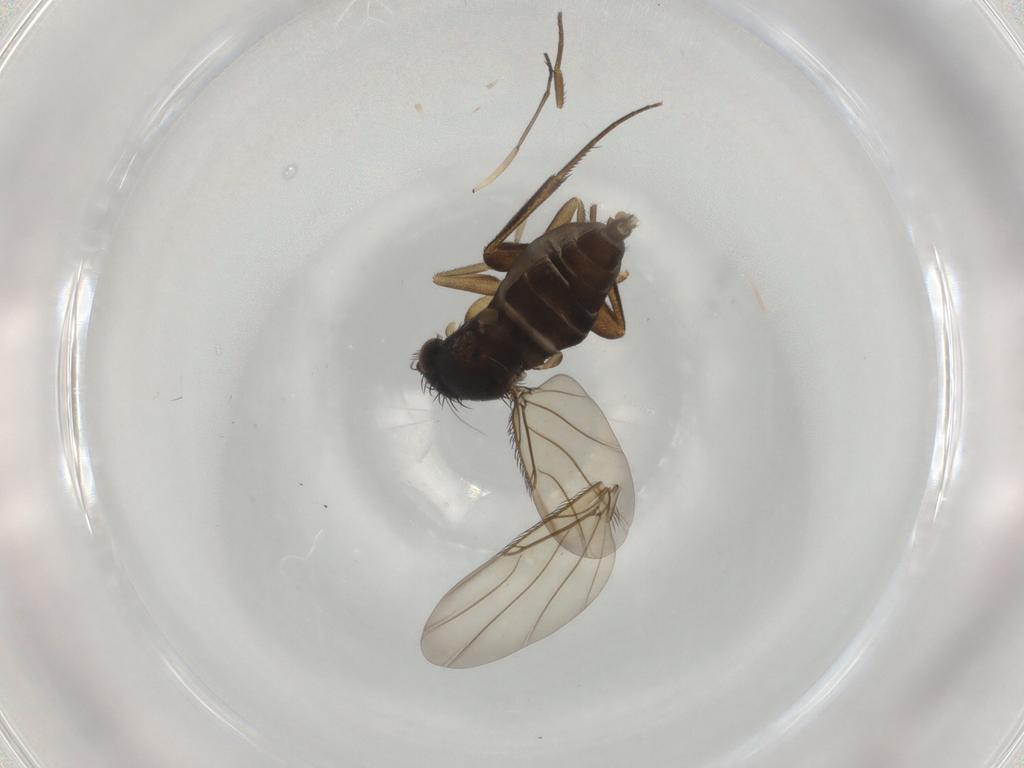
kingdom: Animalia
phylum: Arthropoda
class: Insecta
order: Diptera
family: Phoridae
